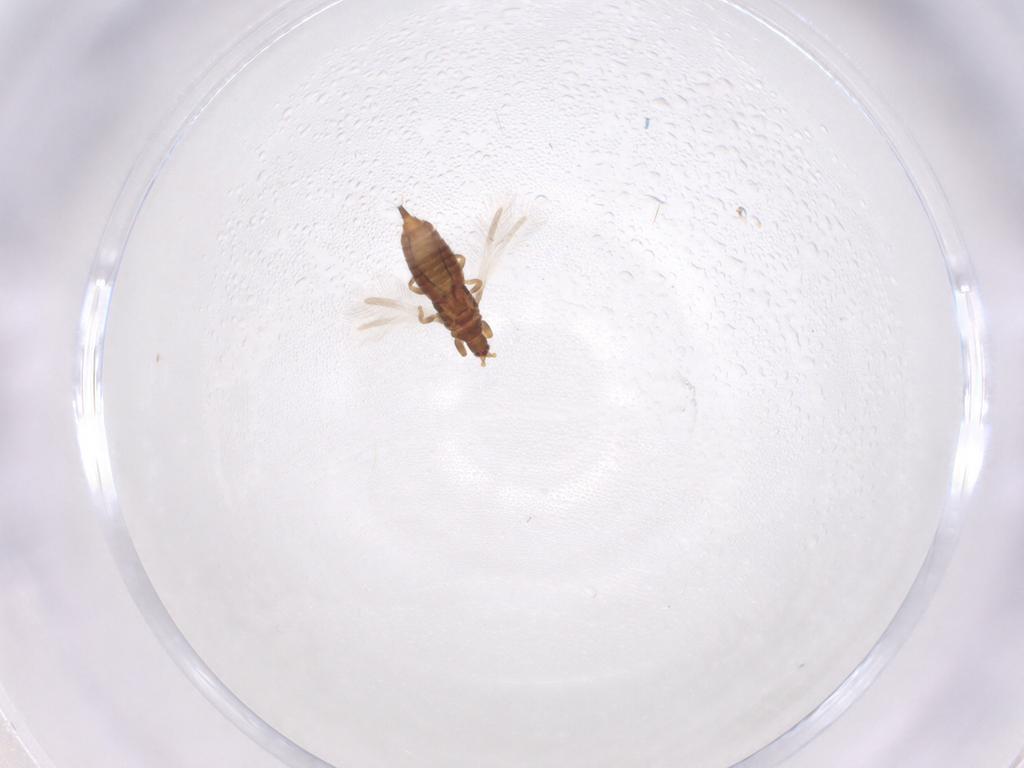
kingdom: Animalia
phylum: Arthropoda
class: Insecta
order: Thysanoptera
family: Phlaeothripidae
